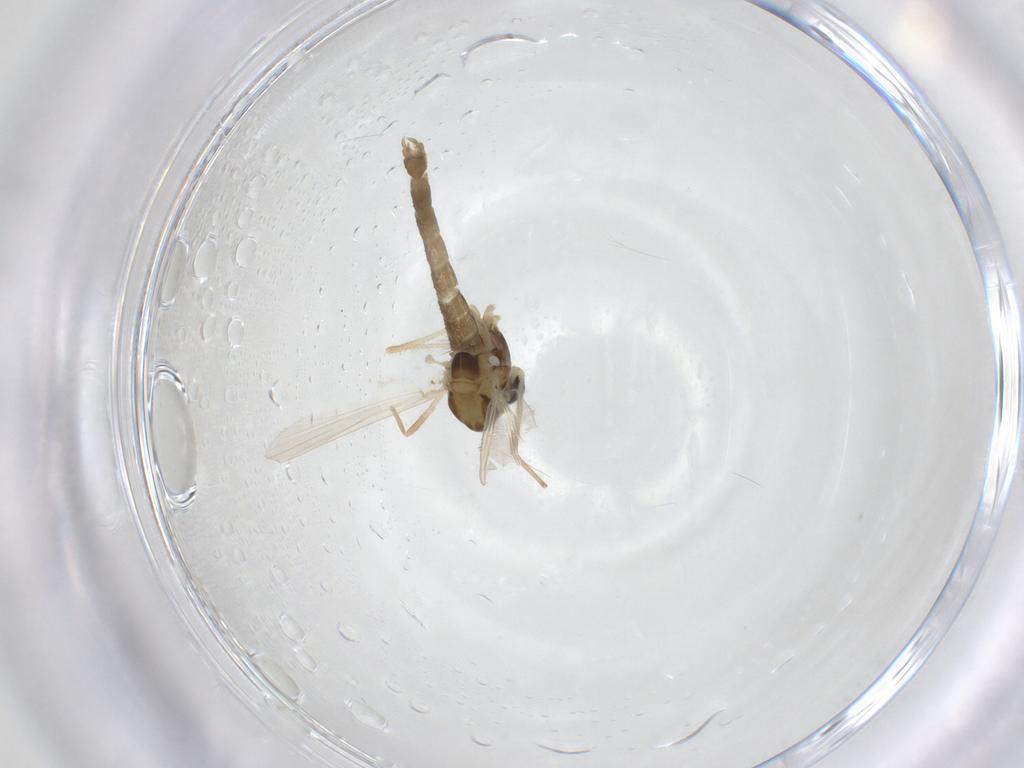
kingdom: Animalia
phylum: Arthropoda
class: Insecta
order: Diptera
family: Chironomidae
